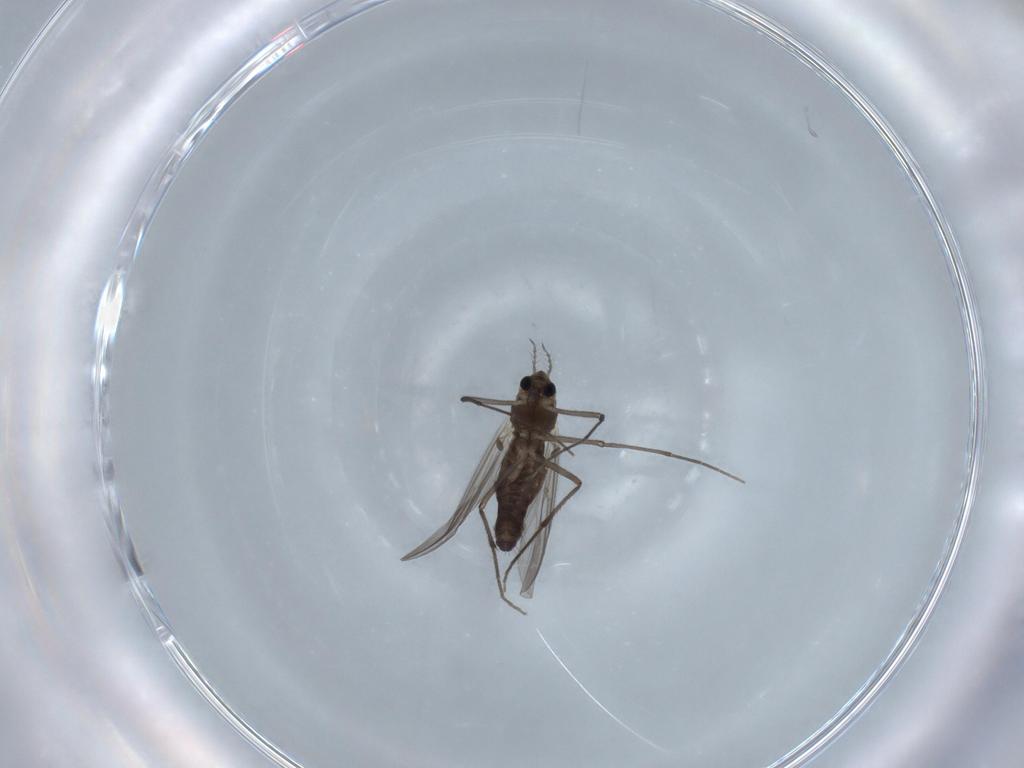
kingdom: Animalia
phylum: Arthropoda
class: Insecta
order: Diptera
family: Chironomidae
